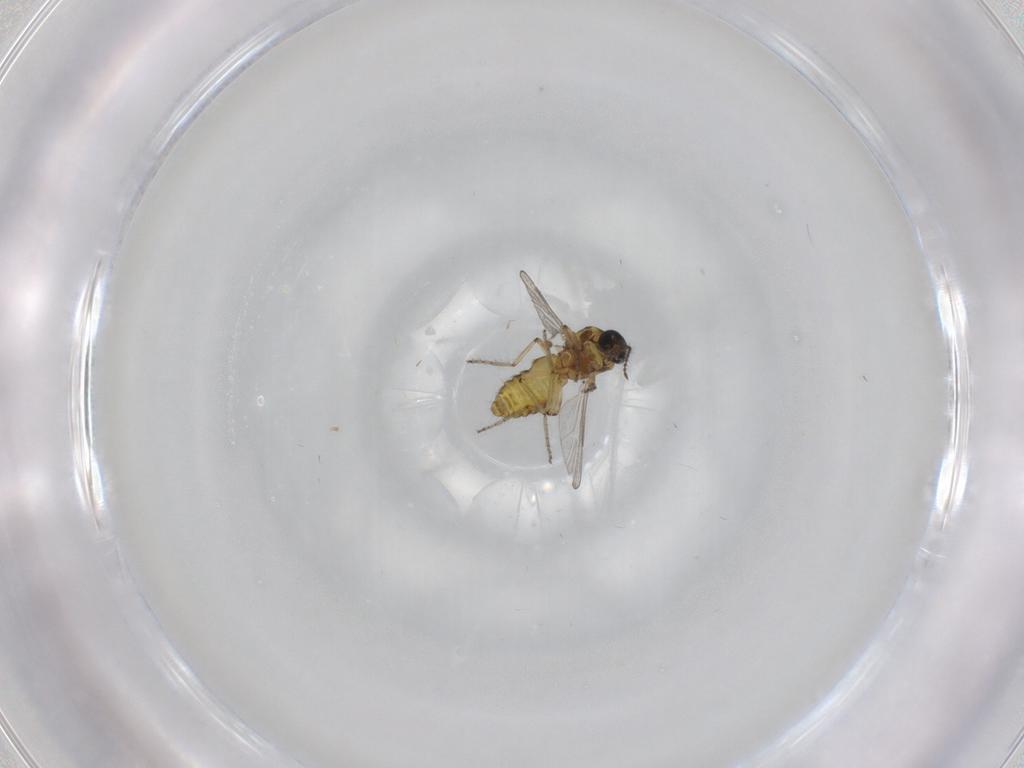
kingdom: Animalia
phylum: Arthropoda
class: Insecta
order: Diptera
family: Ceratopogonidae
